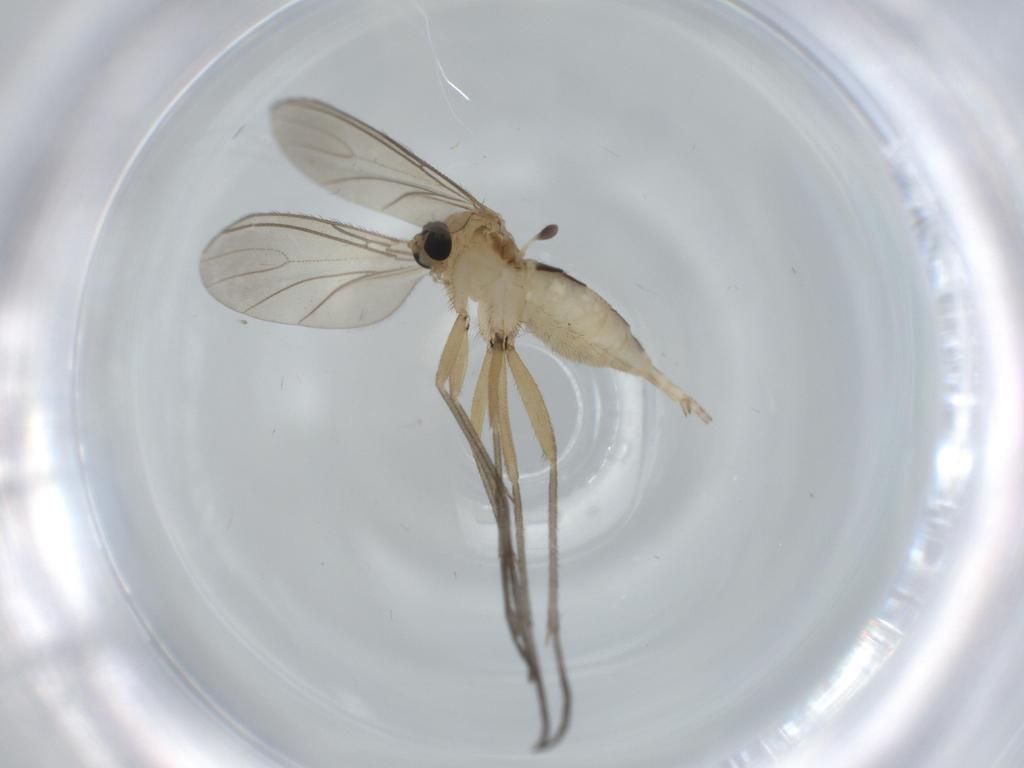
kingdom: Animalia
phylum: Arthropoda
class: Insecta
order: Diptera
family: Sciaridae
